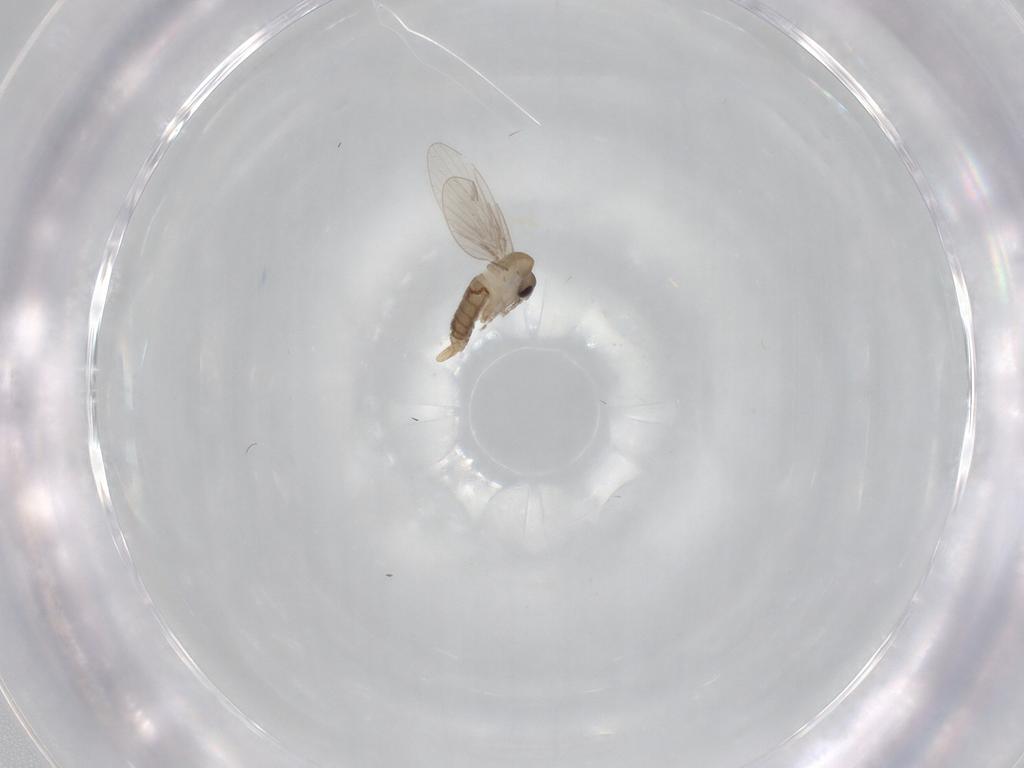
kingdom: Animalia
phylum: Arthropoda
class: Insecta
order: Diptera
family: Psychodidae
